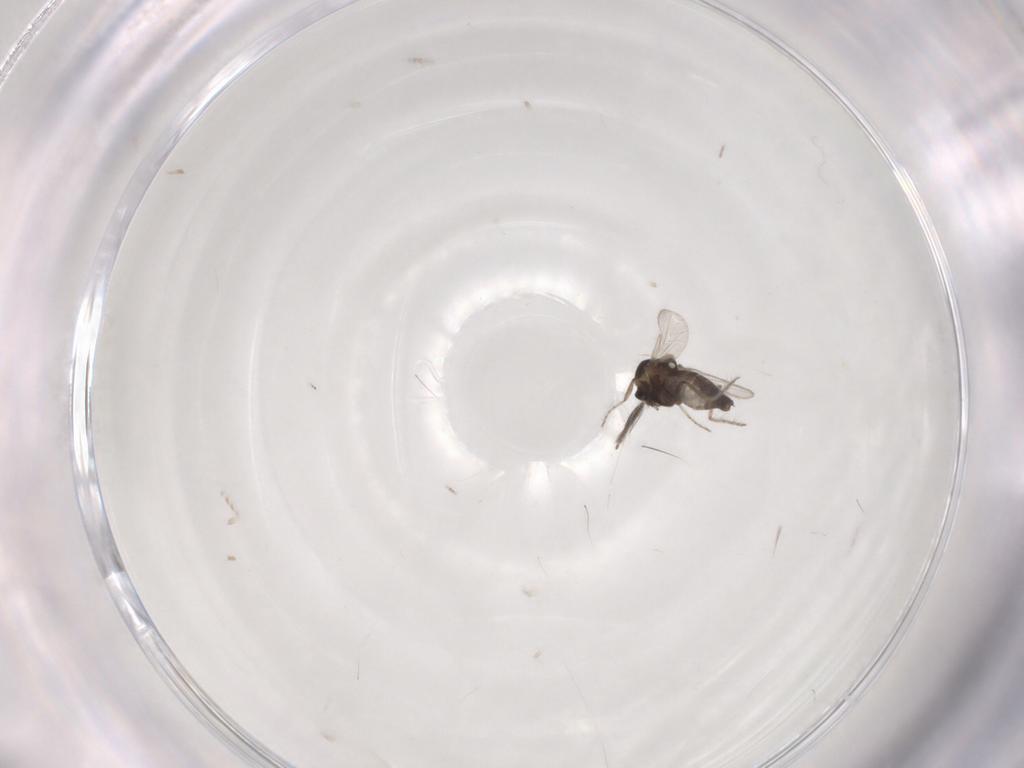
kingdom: Animalia
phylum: Arthropoda
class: Insecta
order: Diptera
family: Ceratopogonidae
